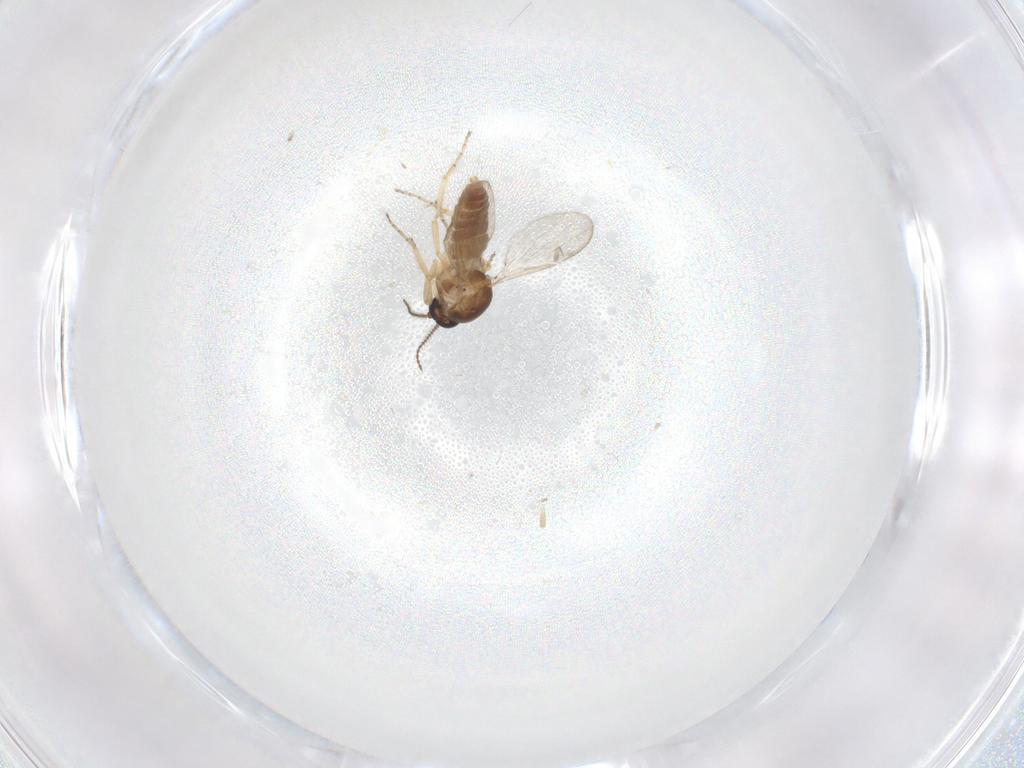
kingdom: Animalia
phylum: Arthropoda
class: Insecta
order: Diptera
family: Ceratopogonidae
